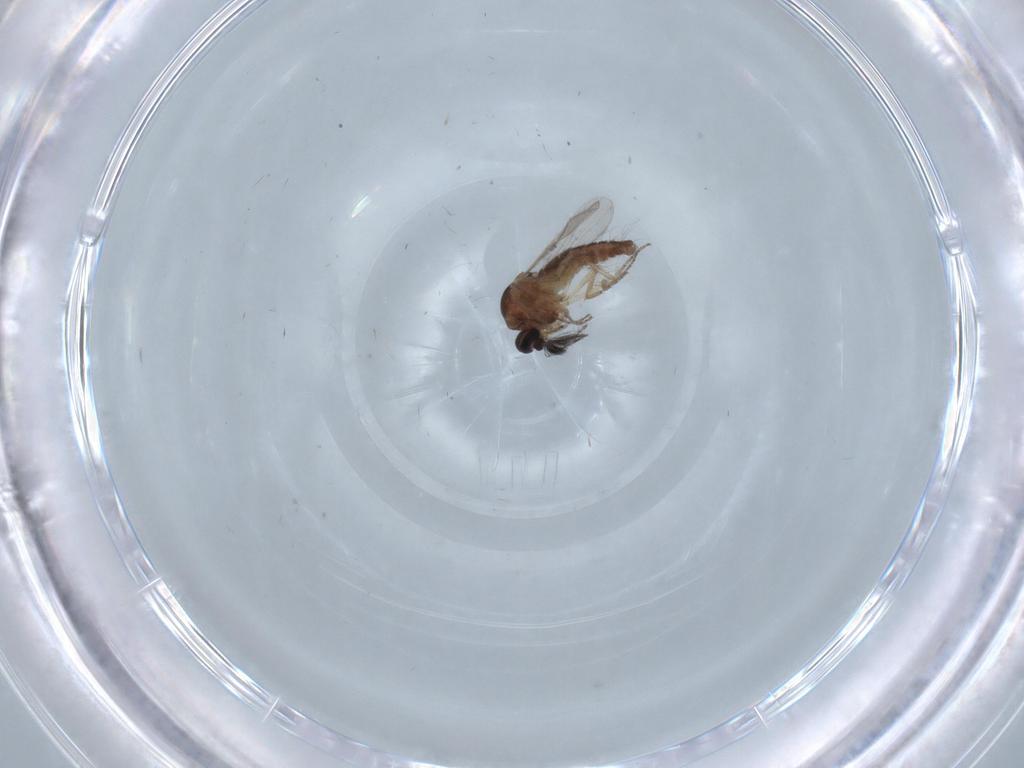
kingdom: Animalia
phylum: Arthropoda
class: Insecta
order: Diptera
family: Ceratopogonidae
